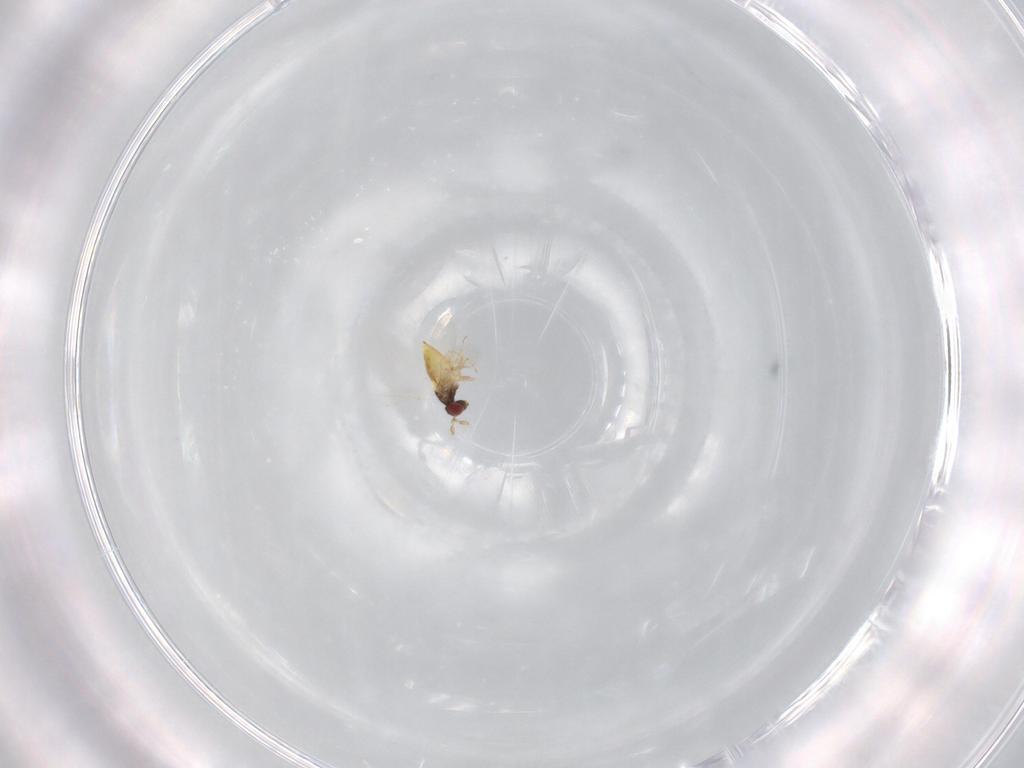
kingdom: Animalia
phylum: Arthropoda
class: Insecta
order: Hymenoptera
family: Trichogrammatidae
